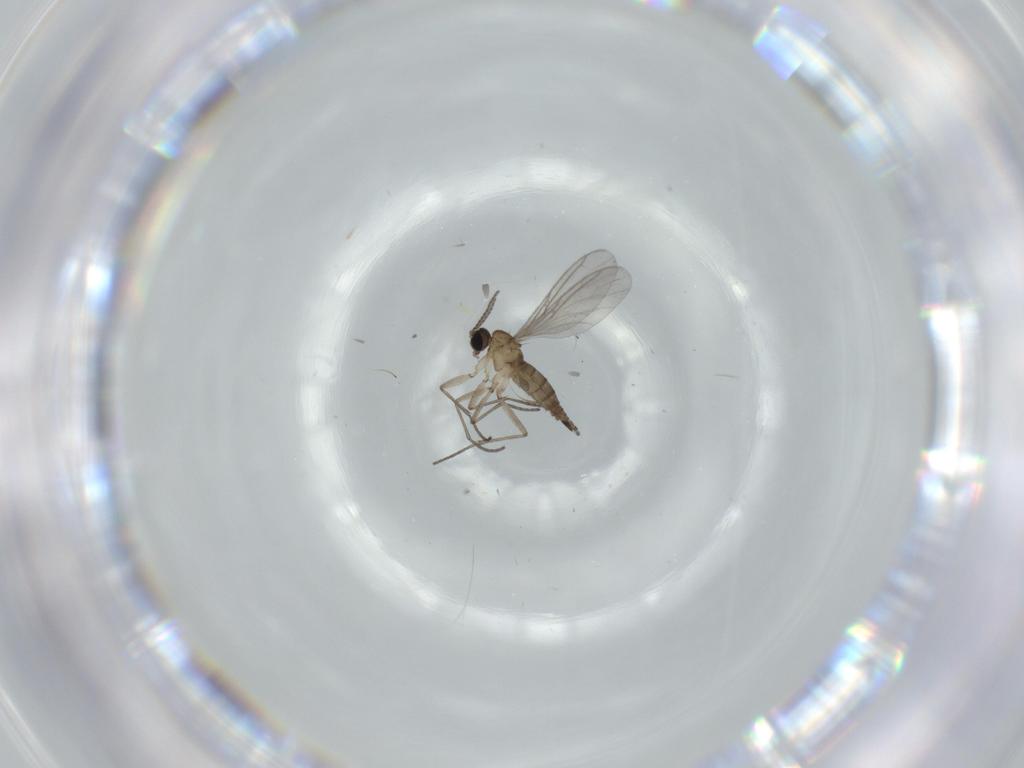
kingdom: Animalia
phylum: Arthropoda
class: Insecta
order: Diptera
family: Sciaridae
